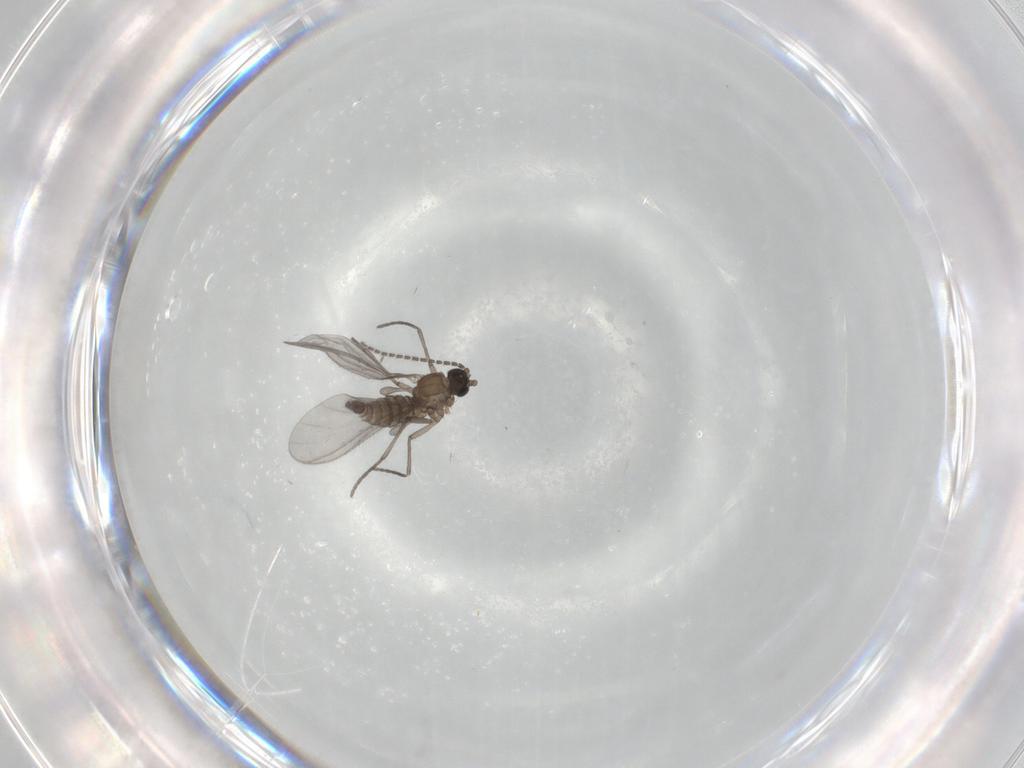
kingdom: Animalia
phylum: Arthropoda
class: Insecta
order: Diptera
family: Sciaridae
